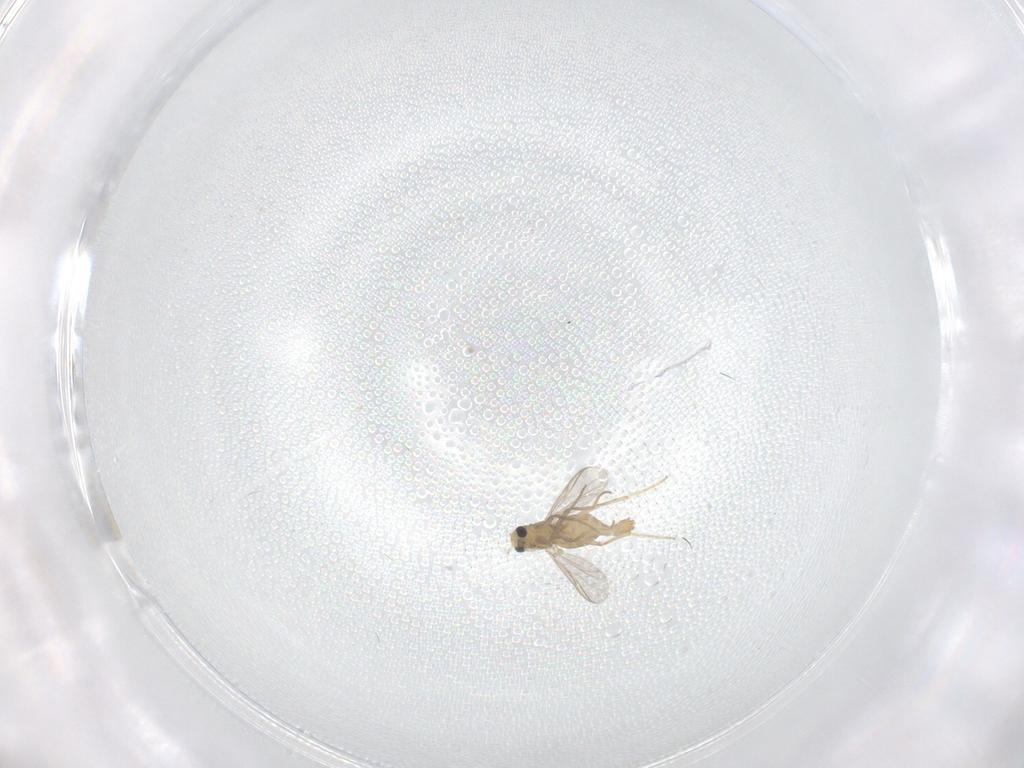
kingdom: Animalia
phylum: Arthropoda
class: Insecta
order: Diptera
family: Chironomidae
